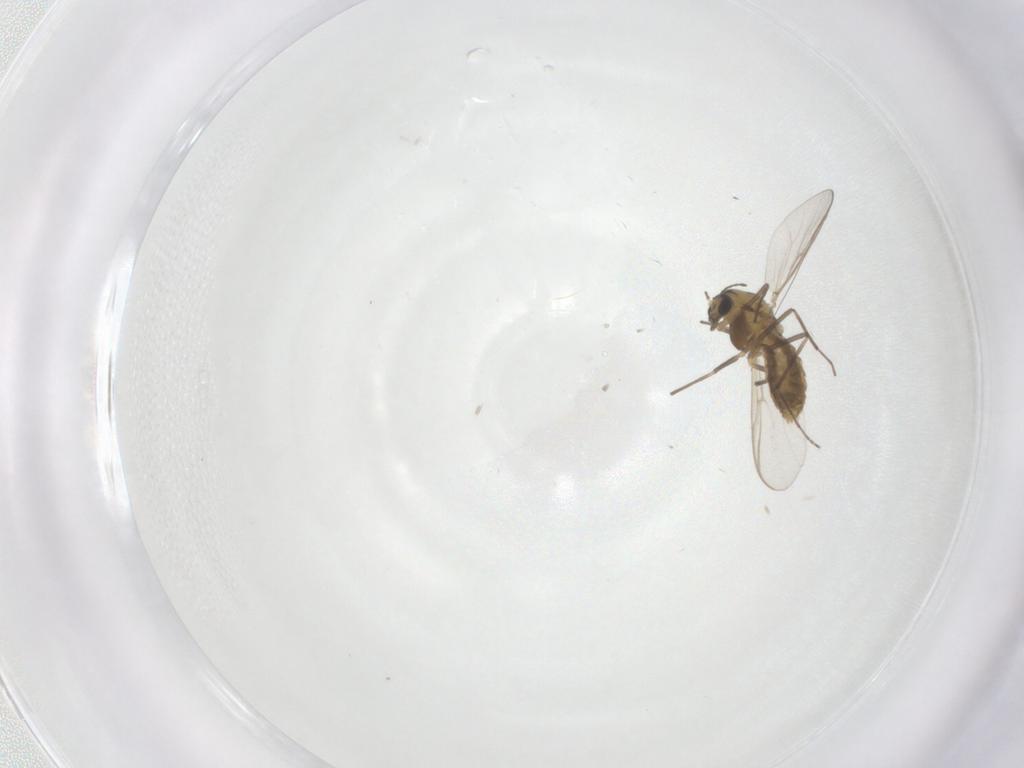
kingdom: Animalia
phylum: Arthropoda
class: Insecta
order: Diptera
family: Chironomidae
